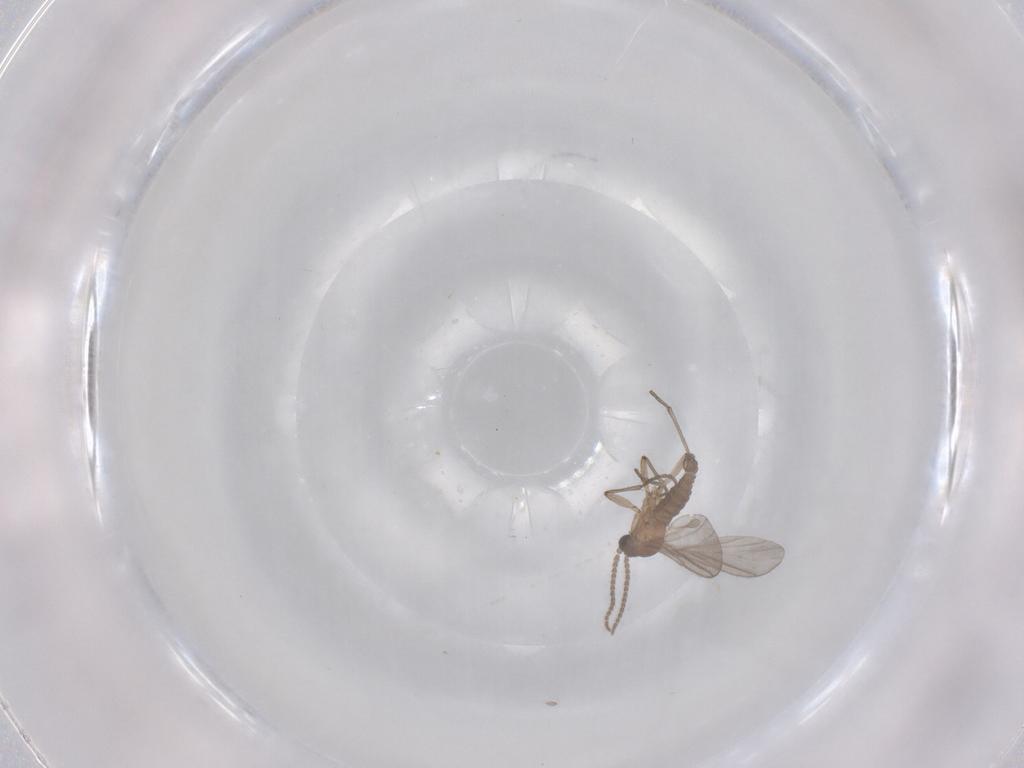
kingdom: Animalia
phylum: Arthropoda
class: Insecta
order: Diptera
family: Sciaridae
